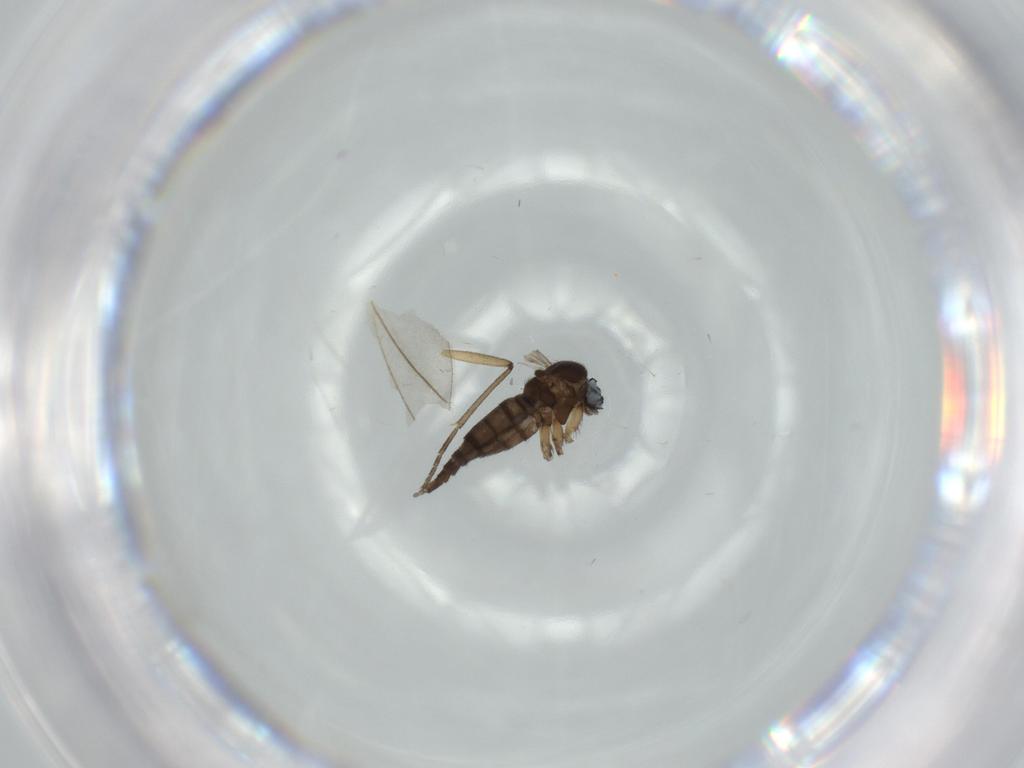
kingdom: Animalia
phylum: Arthropoda
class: Insecta
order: Diptera
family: Sciaridae
